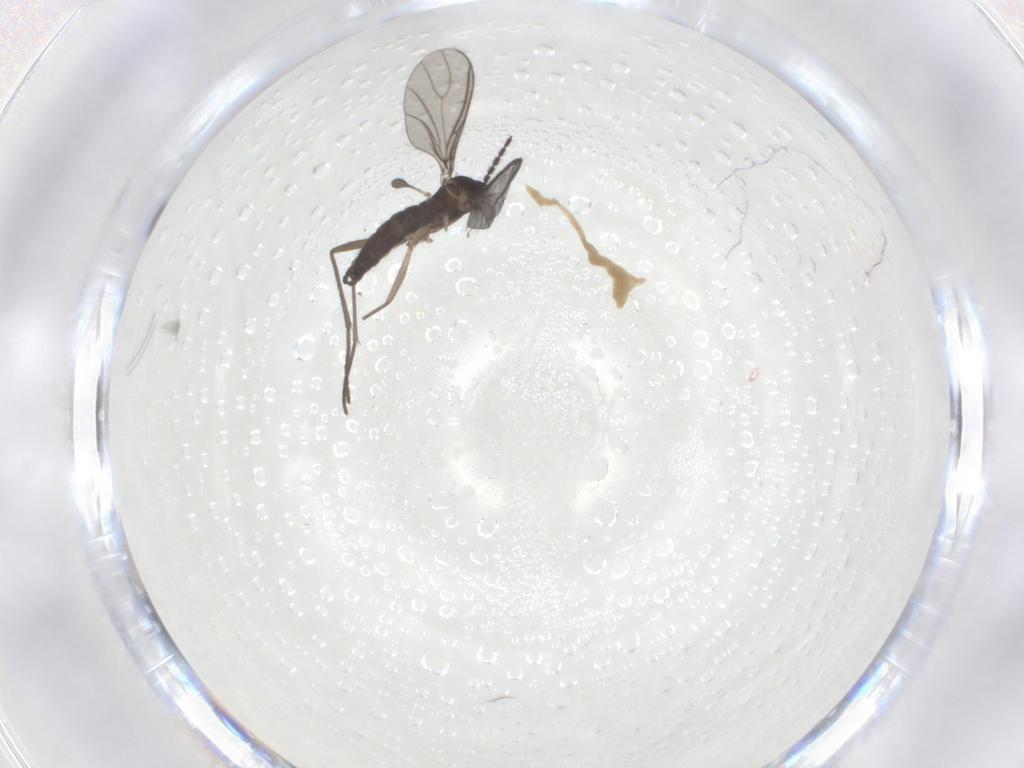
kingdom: Animalia
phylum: Arthropoda
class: Insecta
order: Diptera
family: Sciaridae
